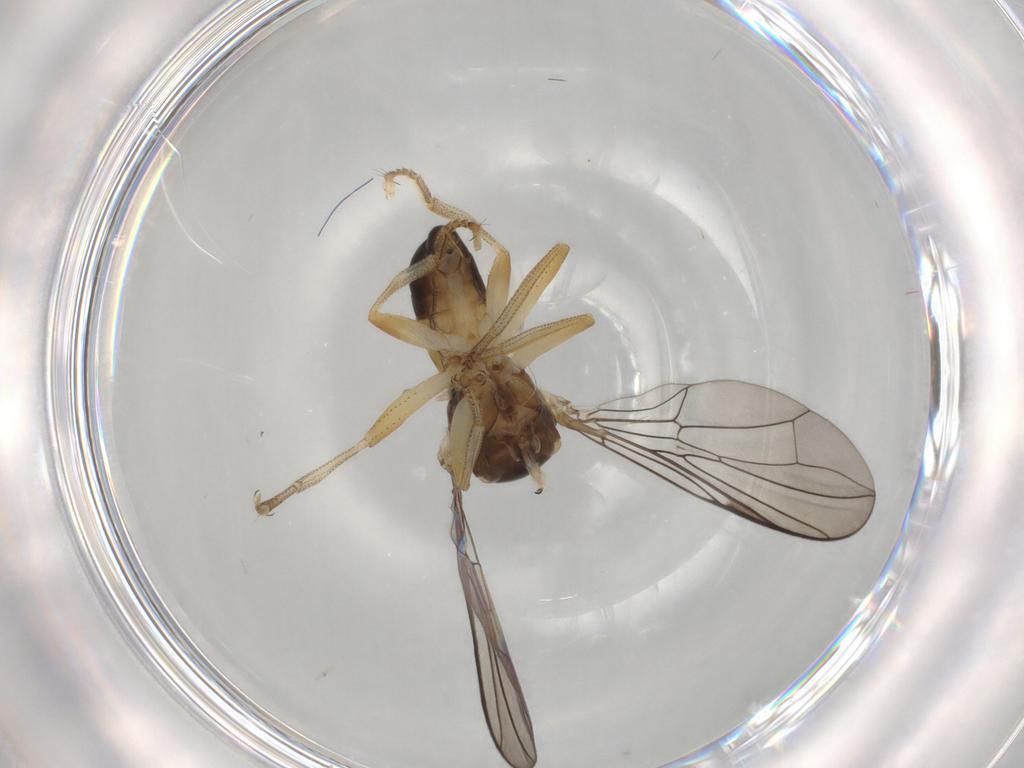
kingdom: Animalia
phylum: Arthropoda
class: Insecta
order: Diptera
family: Pipunculidae
